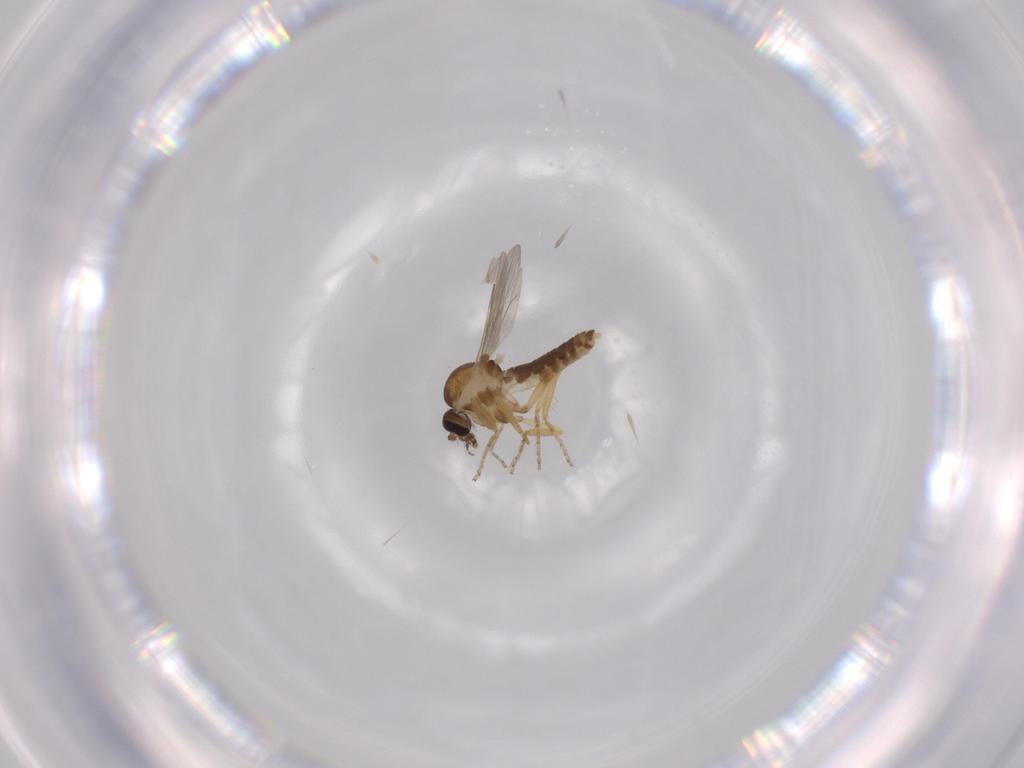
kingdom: Animalia
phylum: Arthropoda
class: Insecta
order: Diptera
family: Ceratopogonidae
